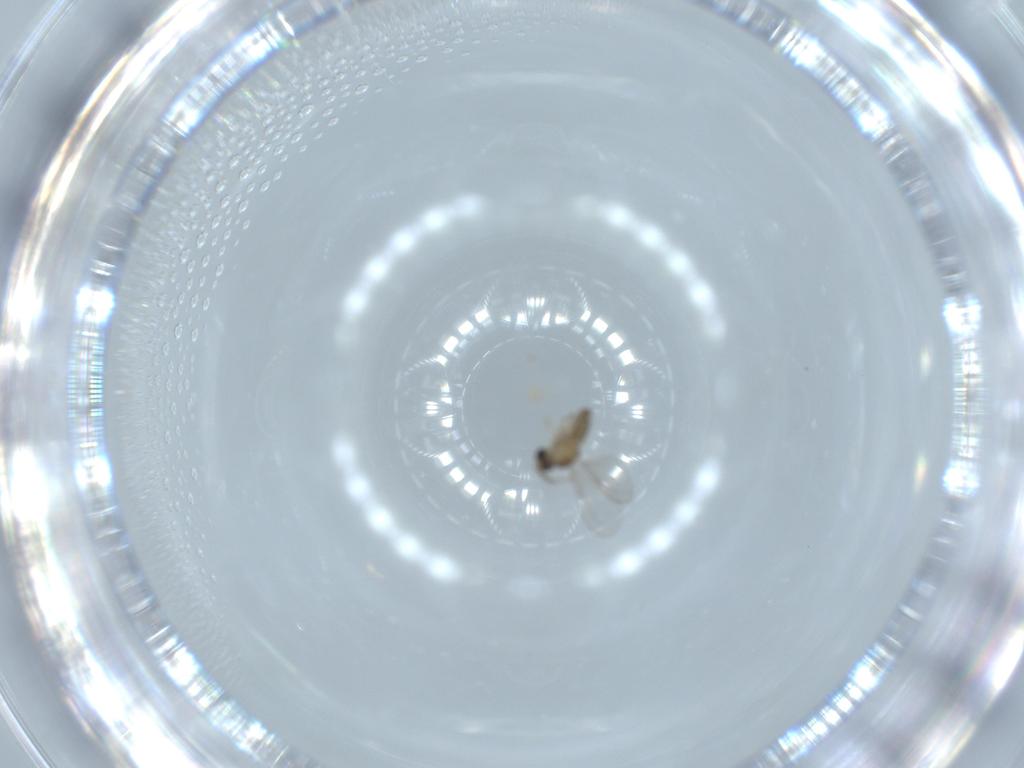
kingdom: Animalia
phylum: Arthropoda
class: Insecta
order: Diptera
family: Cecidomyiidae
